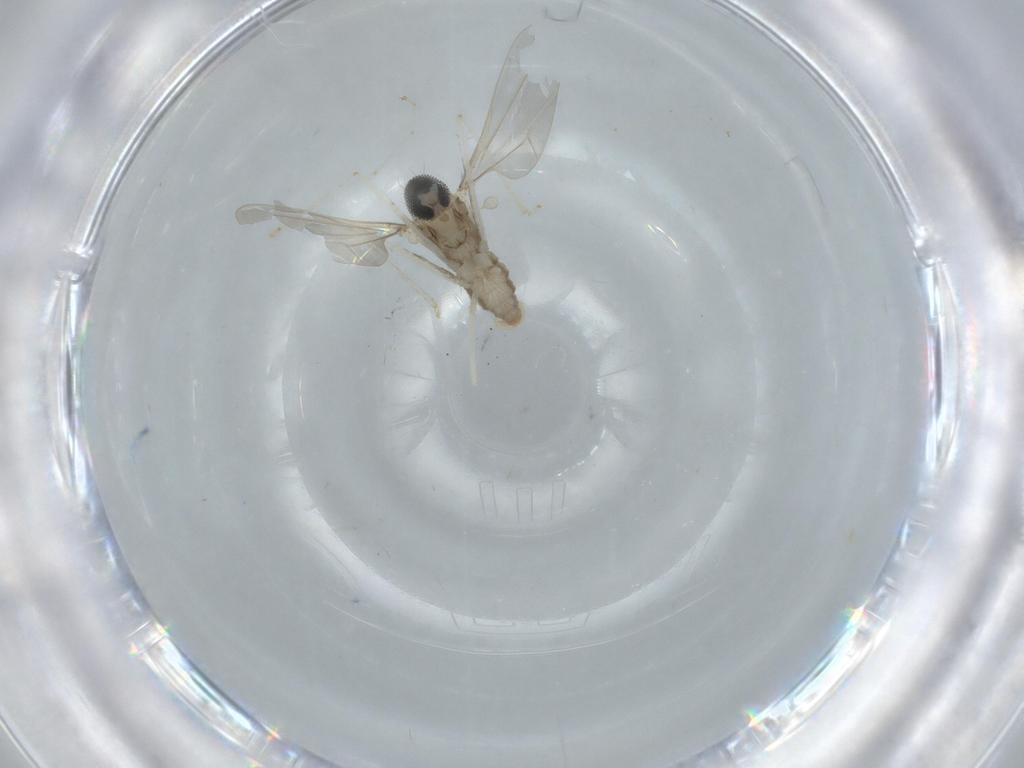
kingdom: Animalia
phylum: Arthropoda
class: Insecta
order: Diptera
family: Cecidomyiidae
